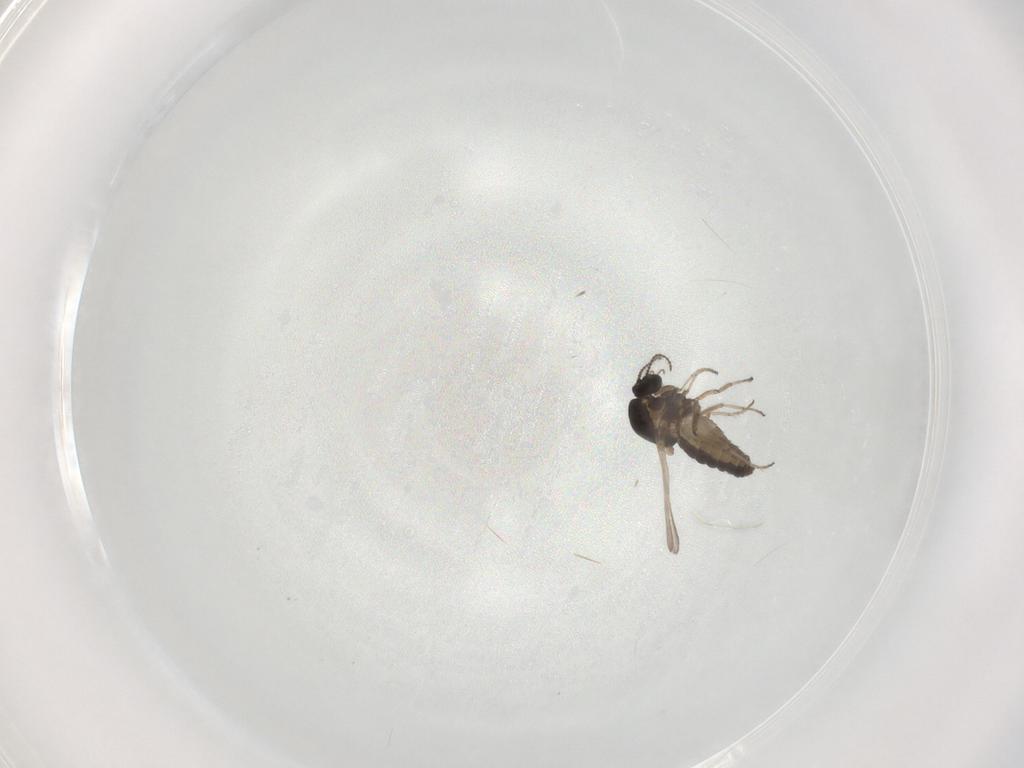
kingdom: Animalia
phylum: Arthropoda
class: Insecta
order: Diptera
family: Ceratopogonidae
